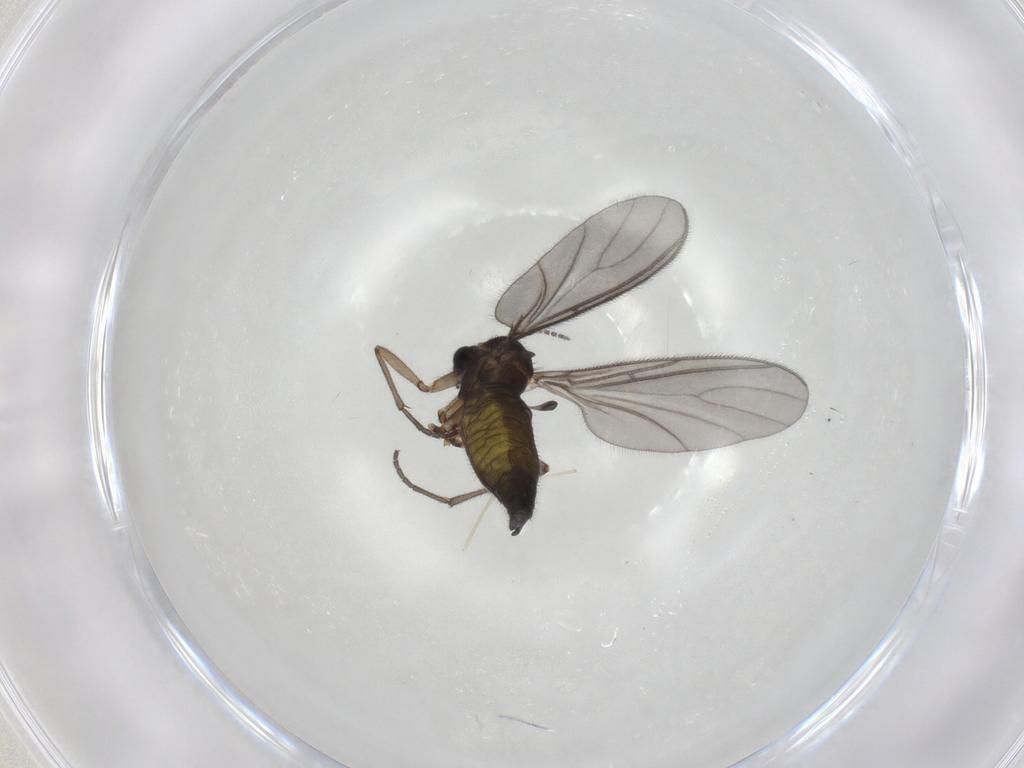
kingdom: Animalia
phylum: Arthropoda
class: Insecta
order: Diptera
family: Sciaridae
